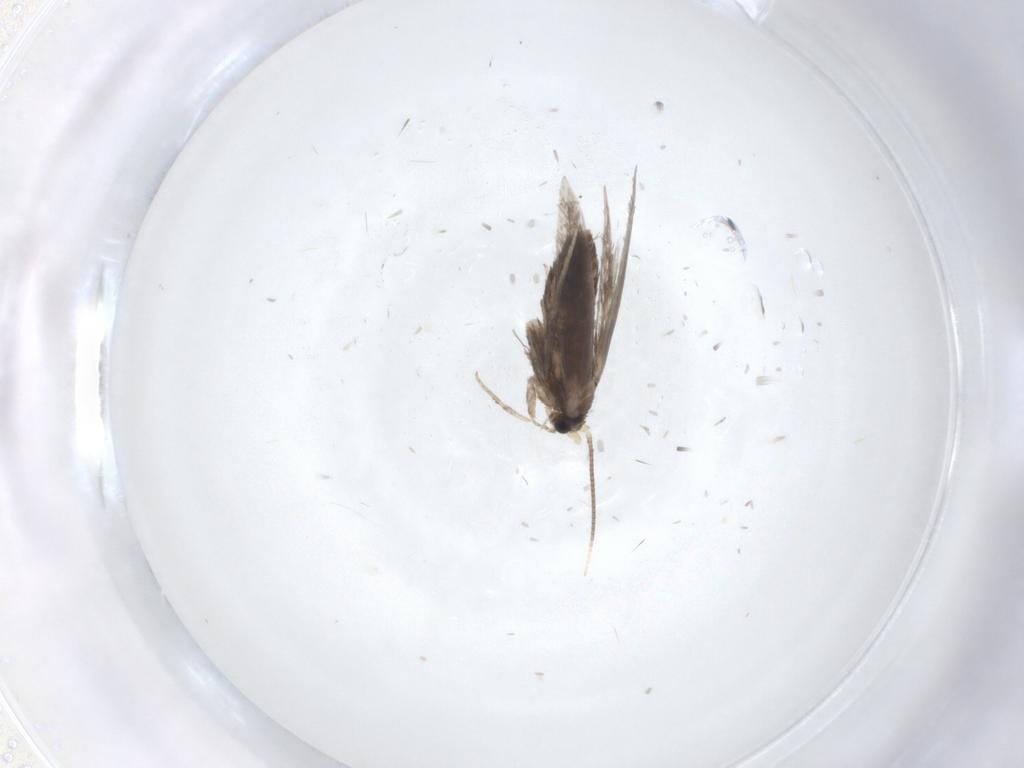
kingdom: Animalia
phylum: Arthropoda
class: Insecta
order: Lepidoptera
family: Nepticulidae
